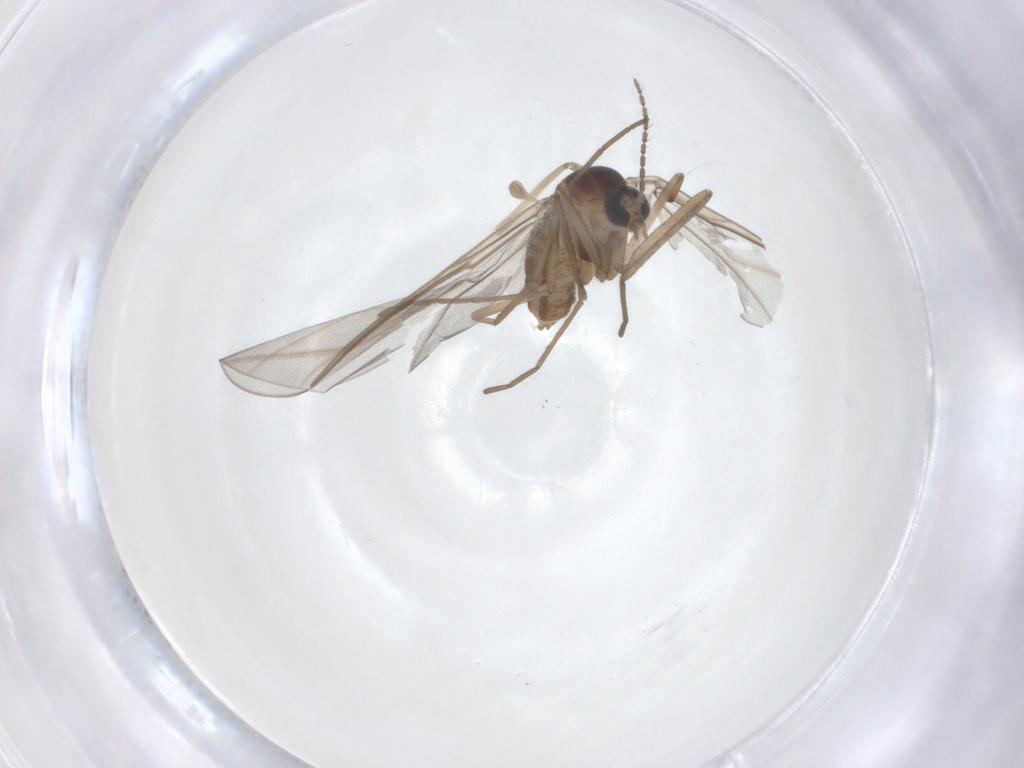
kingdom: Animalia
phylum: Arthropoda
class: Insecta
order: Diptera
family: Cecidomyiidae
